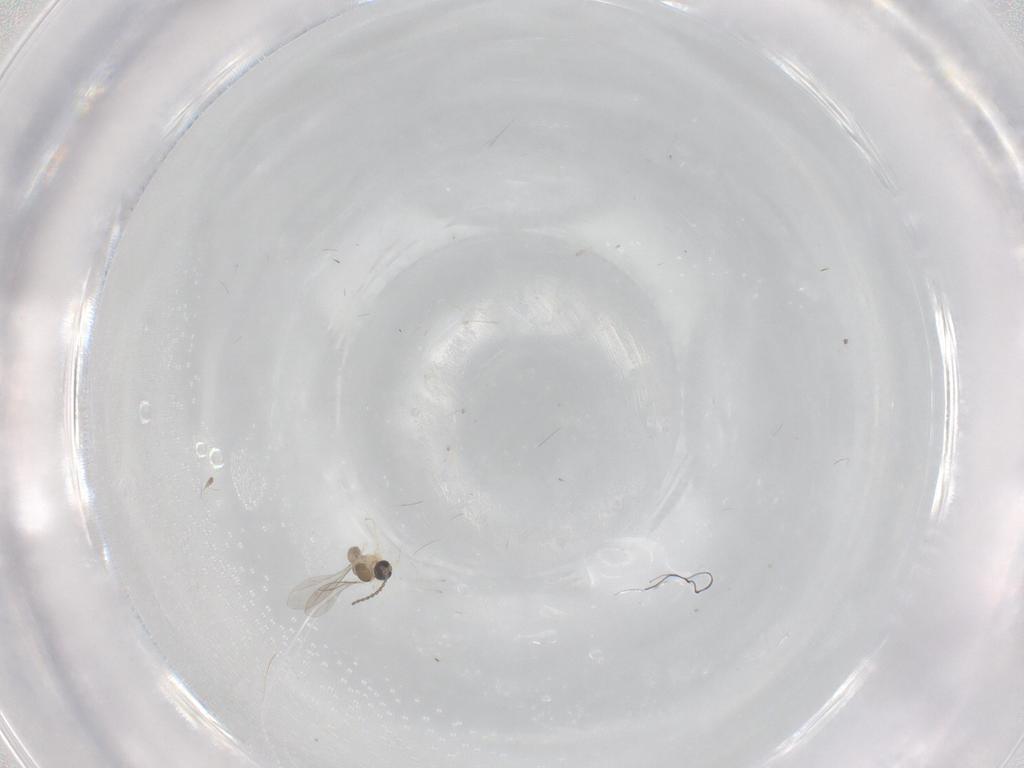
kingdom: Animalia
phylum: Arthropoda
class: Insecta
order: Diptera
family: Cecidomyiidae
